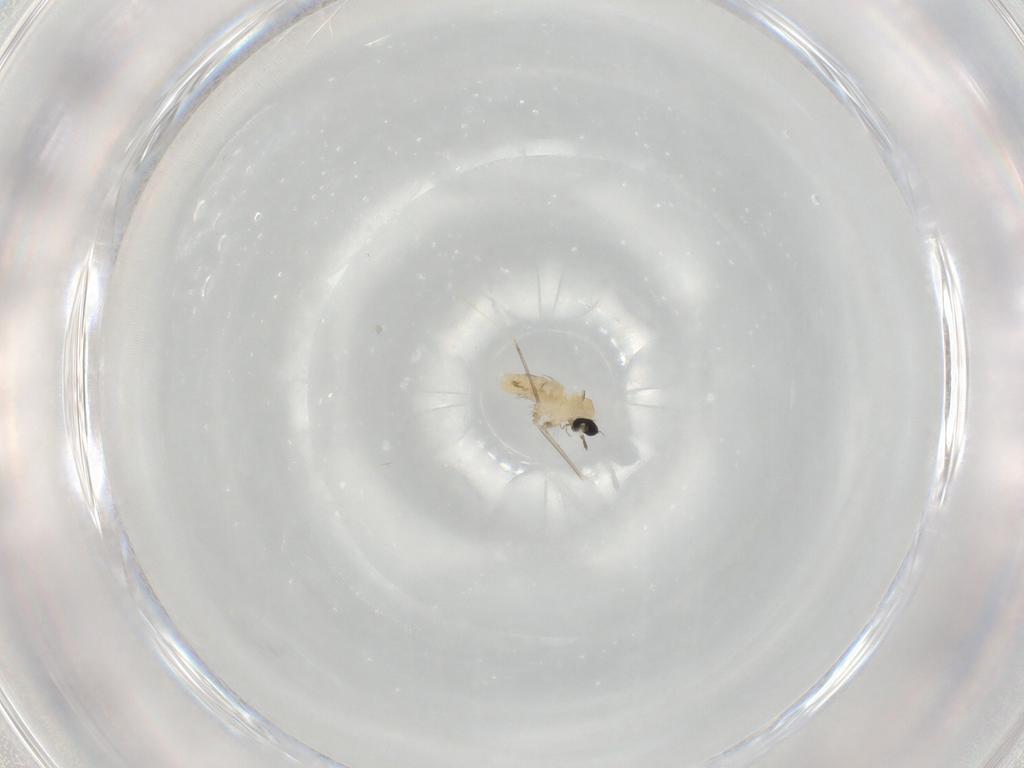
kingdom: Animalia
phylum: Arthropoda
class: Insecta
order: Diptera
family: Cecidomyiidae
